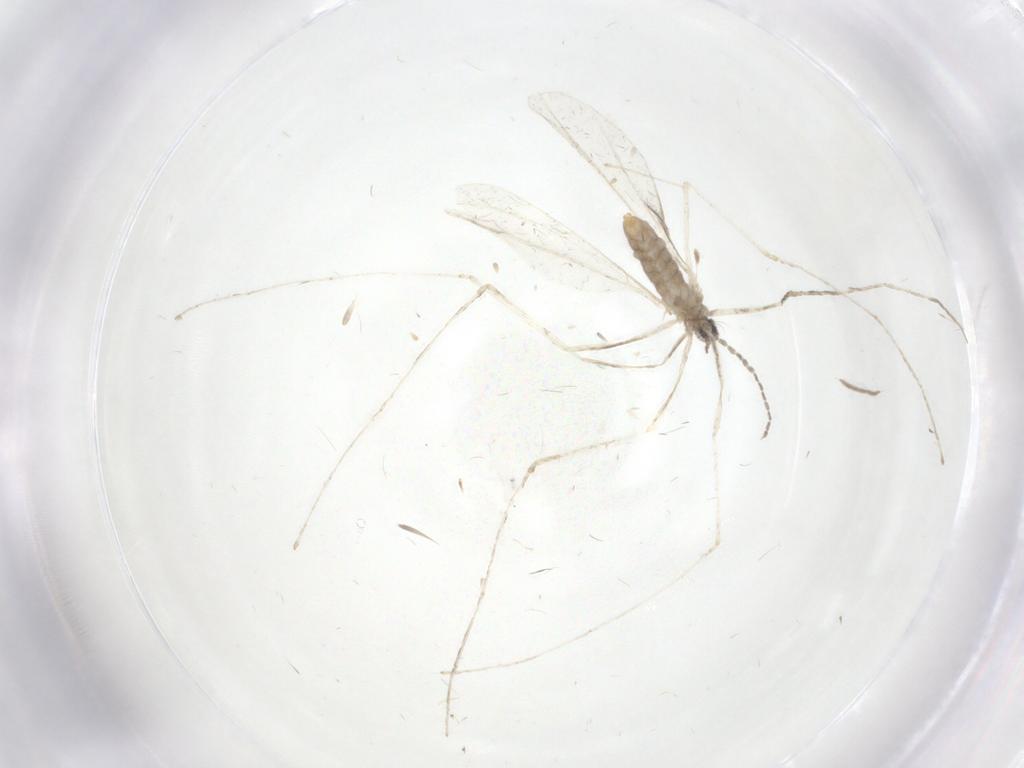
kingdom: Animalia
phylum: Arthropoda
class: Insecta
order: Diptera
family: Cecidomyiidae
